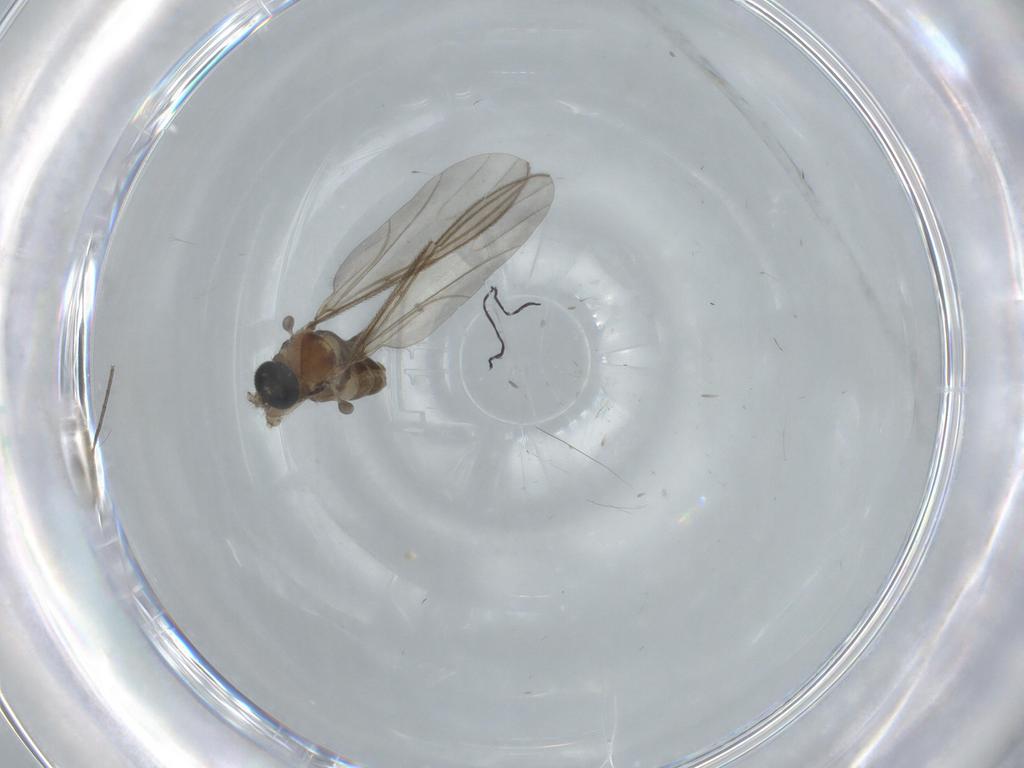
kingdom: Animalia
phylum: Arthropoda
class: Insecta
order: Diptera
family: Sciaridae
